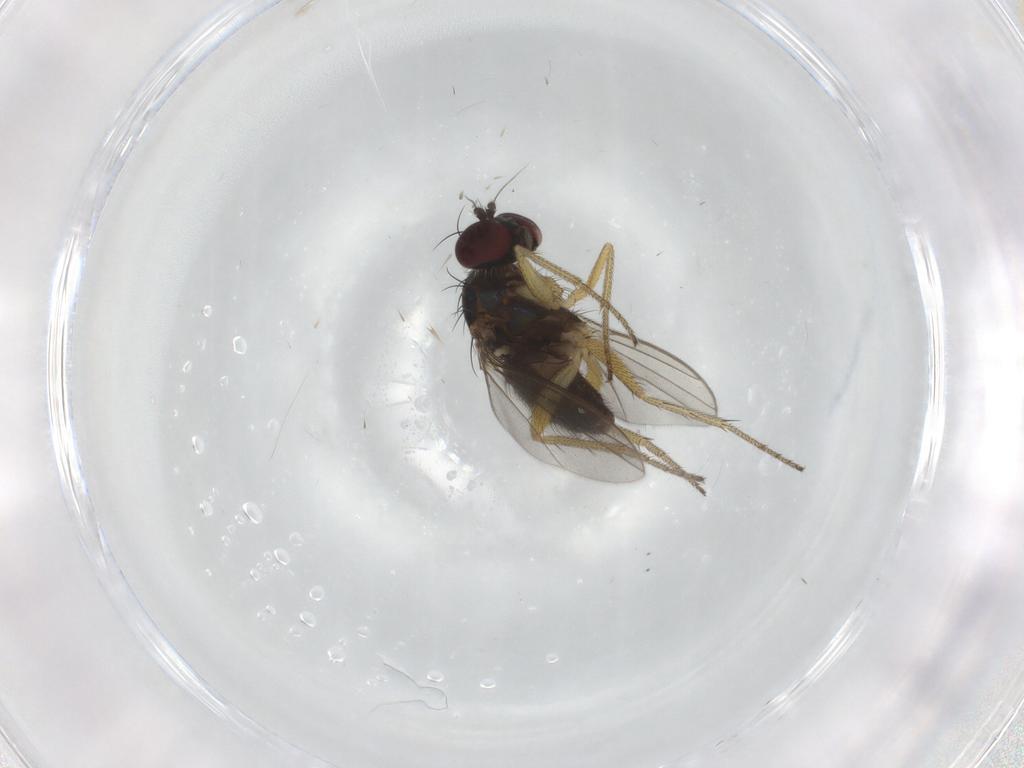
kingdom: Animalia
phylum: Arthropoda
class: Insecta
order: Diptera
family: Dolichopodidae
